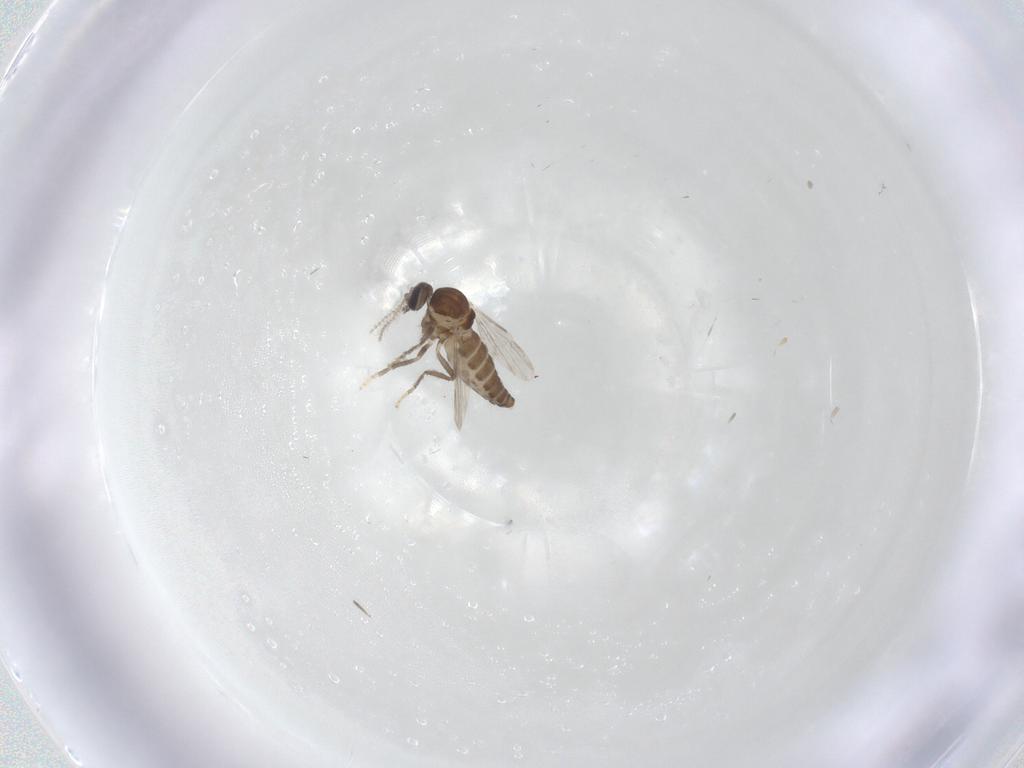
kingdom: Animalia
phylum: Arthropoda
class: Insecta
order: Diptera
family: Ceratopogonidae
